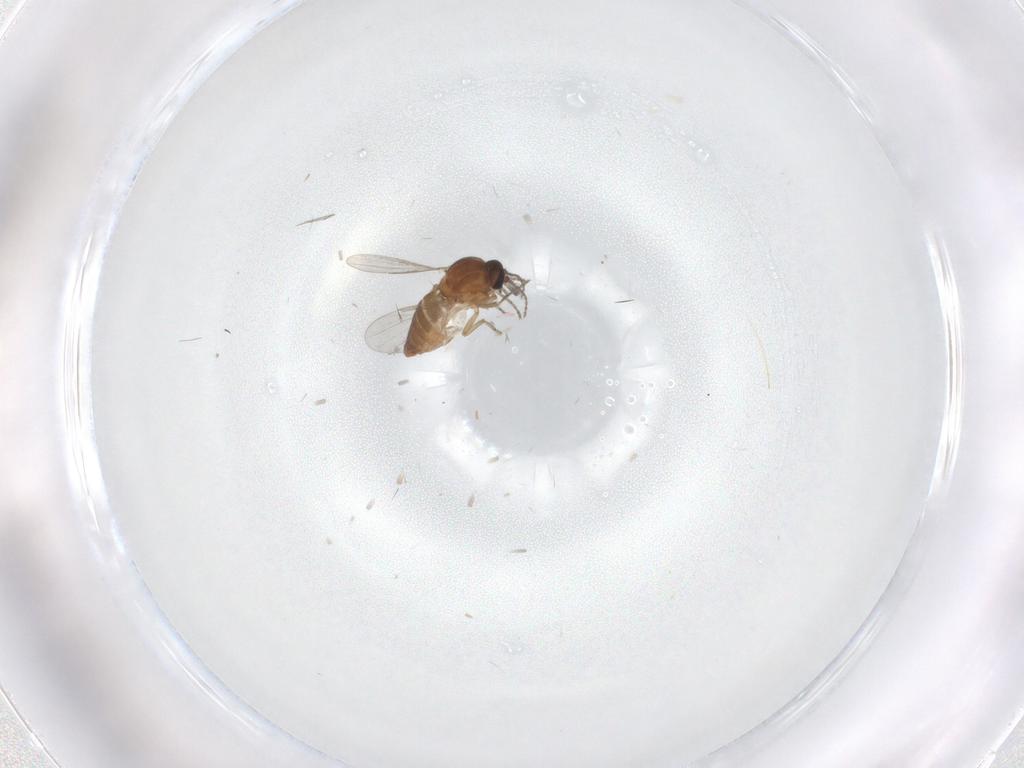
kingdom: Animalia
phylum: Arthropoda
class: Insecta
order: Diptera
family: Ceratopogonidae
